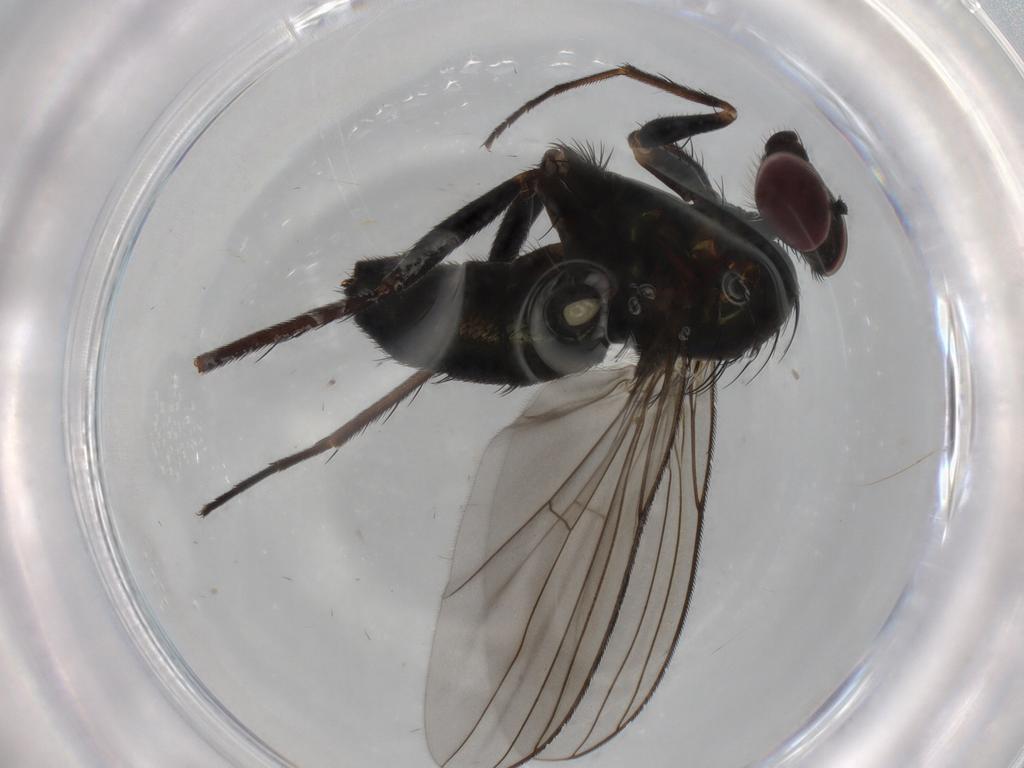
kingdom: Animalia
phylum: Arthropoda
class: Insecta
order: Diptera
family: Dolichopodidae
